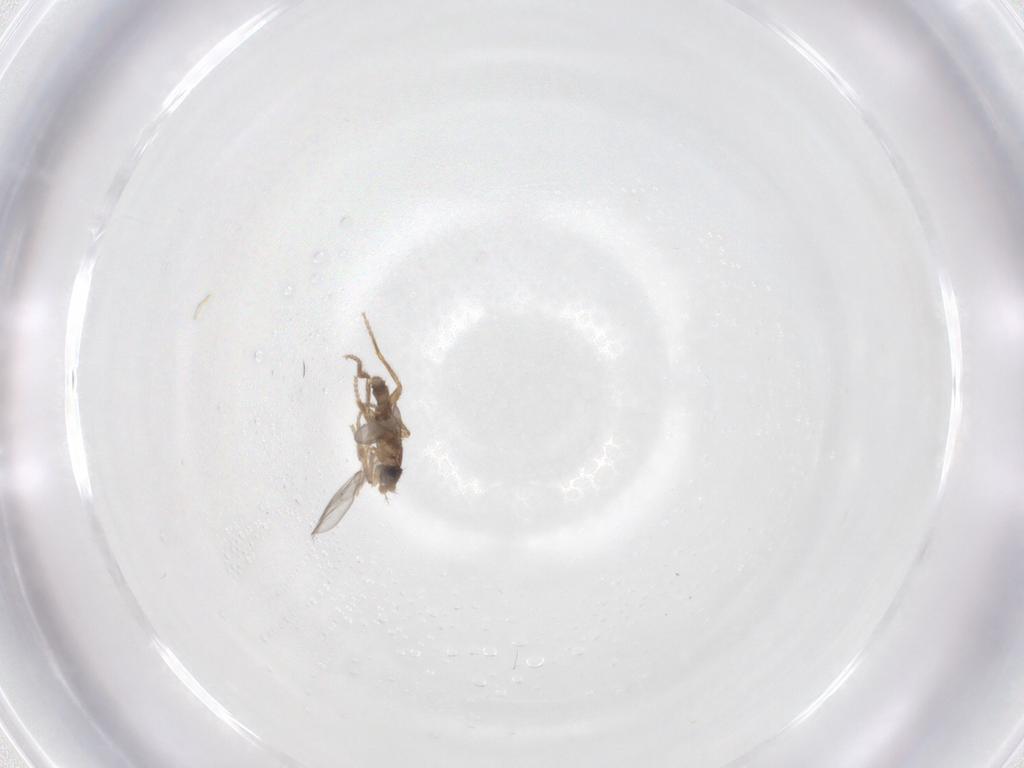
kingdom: Animalia
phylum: Arthropoda
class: Insecta
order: Diptera
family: Phoridae
